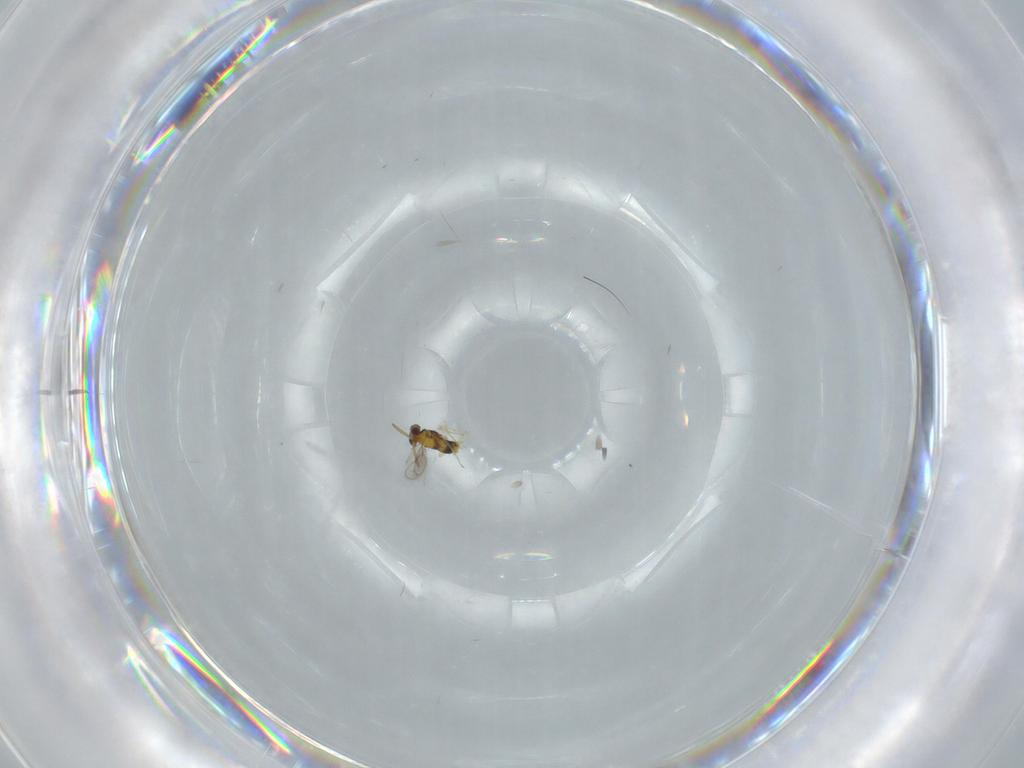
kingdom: Animalia
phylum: Arthropoda
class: Insecta
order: Hymenoptera
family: Aphelinidae
